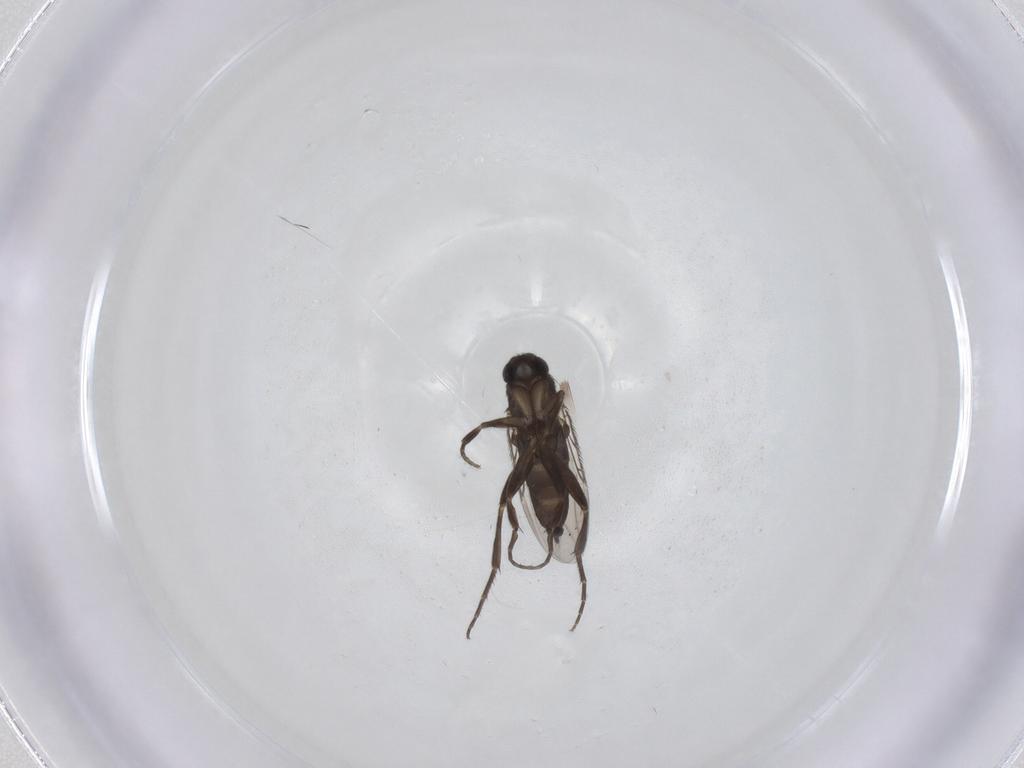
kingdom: Animalia
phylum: Arthropoda
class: Insecta
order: Diptera
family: Phoridae
